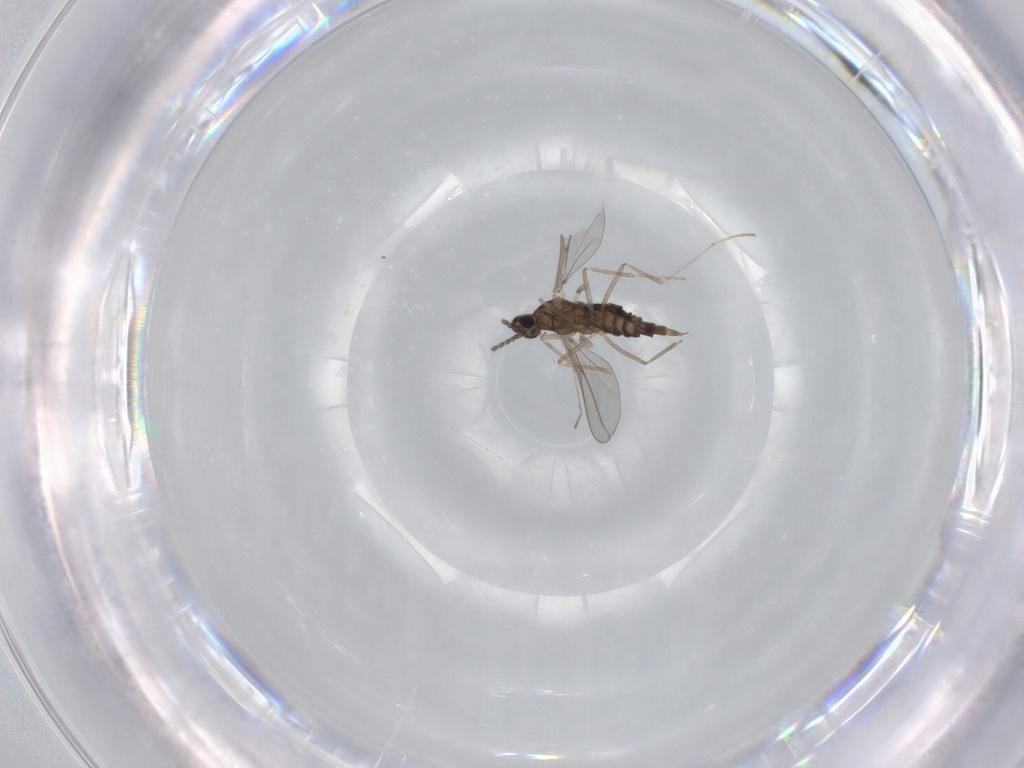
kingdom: Animalia
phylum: Arthropoda
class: Insecta
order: Diptera
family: Cecidomyiidae
